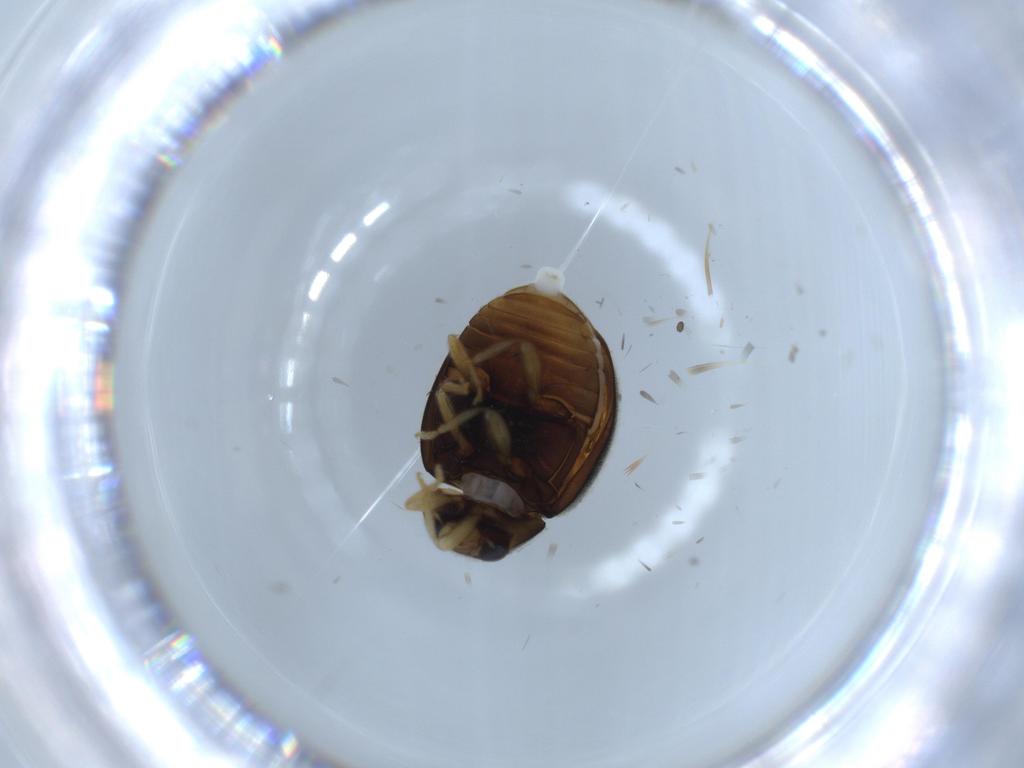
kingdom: Animalia
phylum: Arthropoda
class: Insecta
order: Coleoptera
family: Coccinellidae
